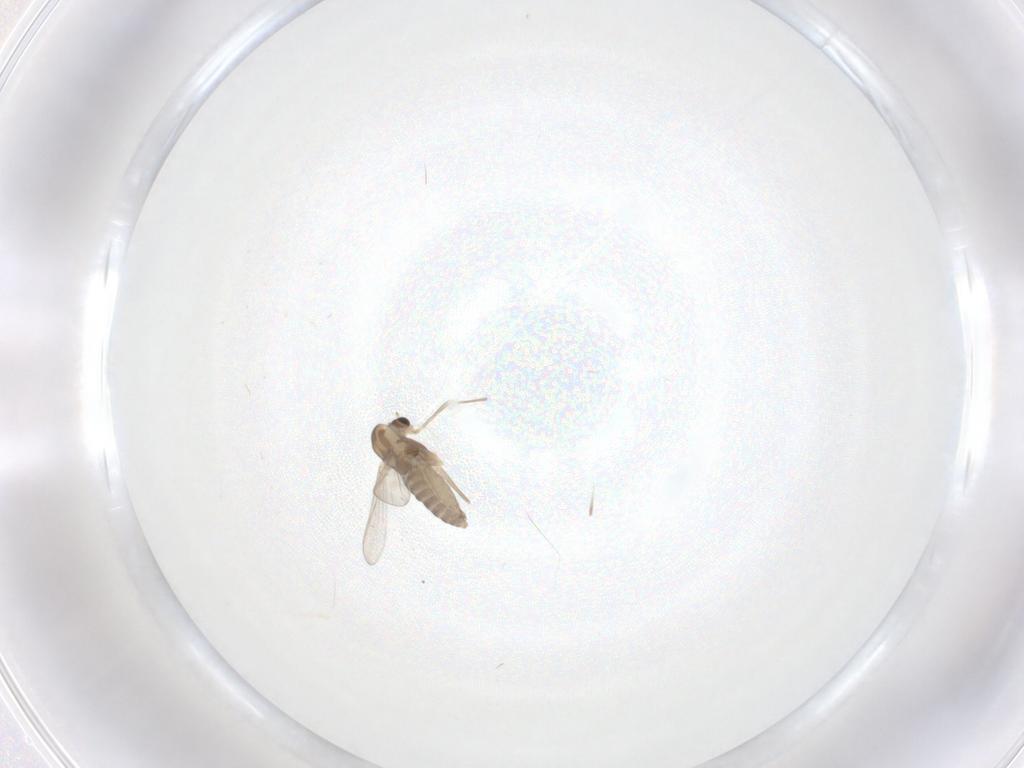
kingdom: Animalia
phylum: Arthropoda
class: Insecta
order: Diptera
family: Chironomidae
